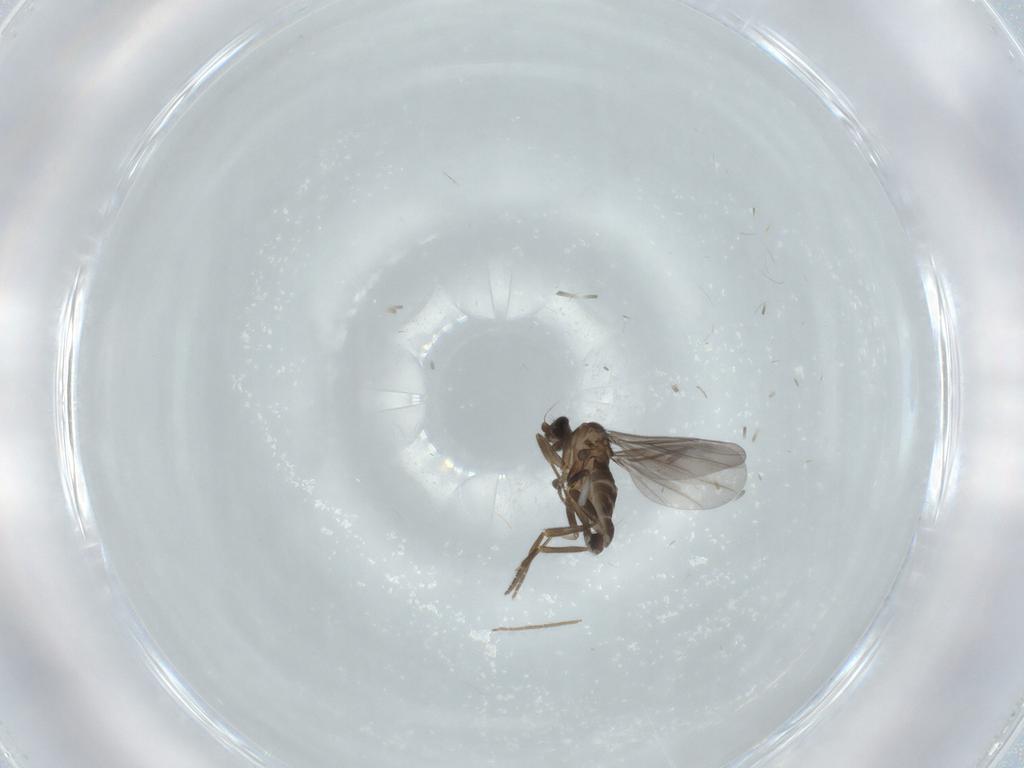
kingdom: Animalia
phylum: Arthropoda
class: Insecta
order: Diptera
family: Phoridae
